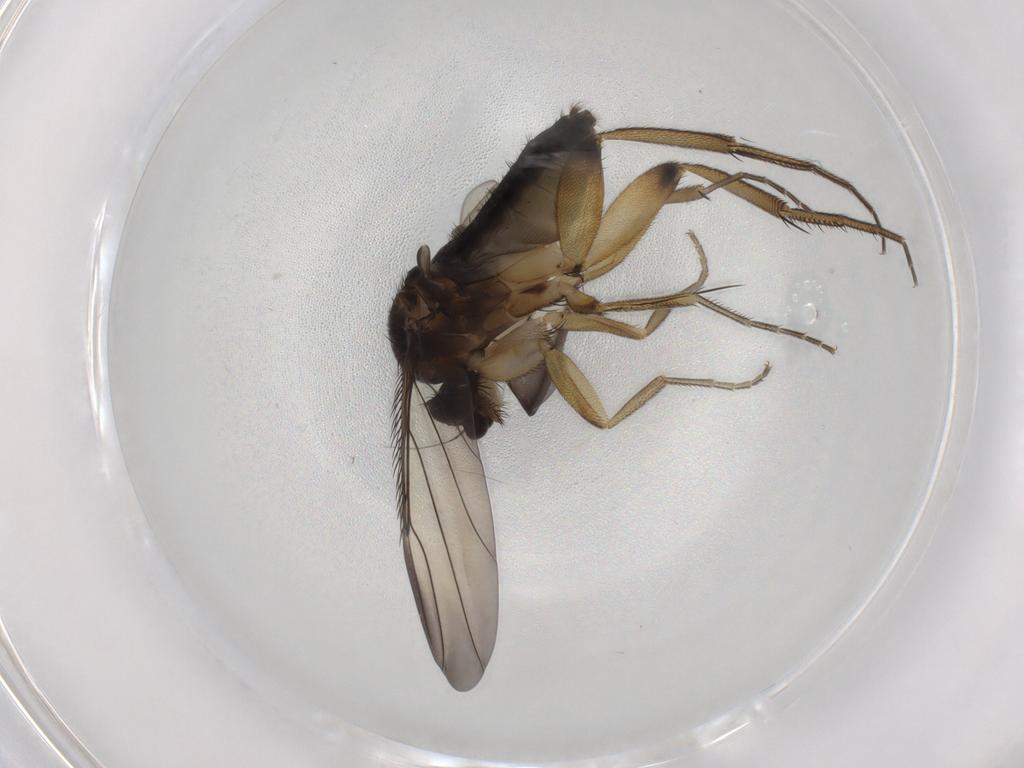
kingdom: Animalia
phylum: Arthropoda
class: Insecta
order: Diptera
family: Phoridae
